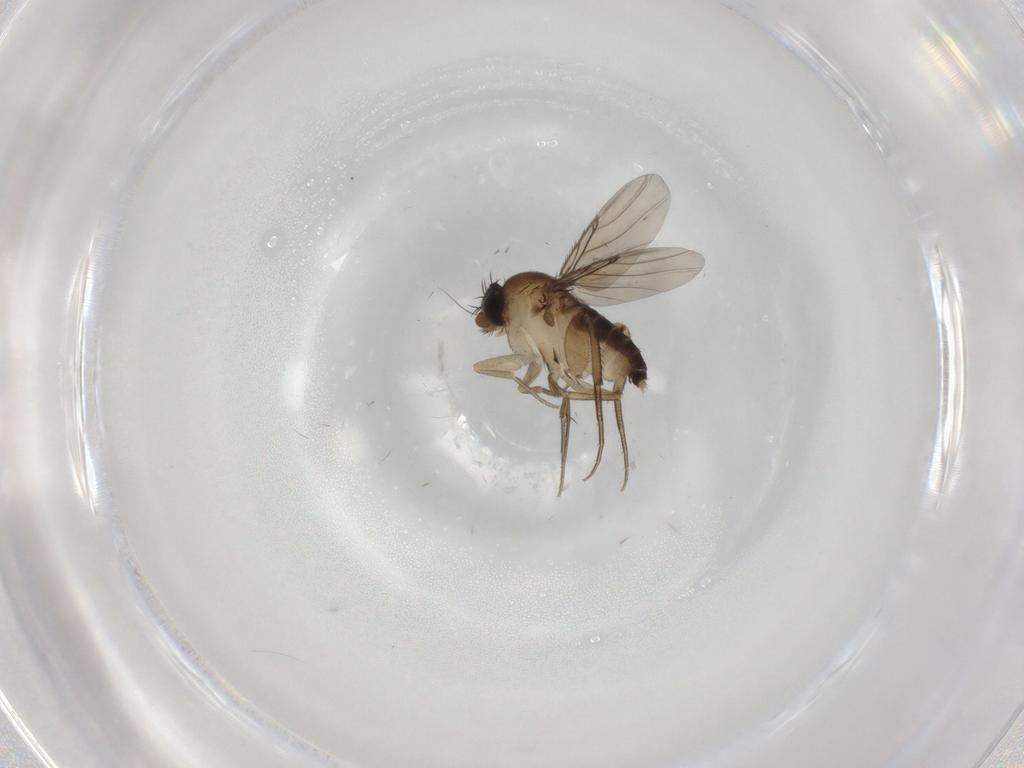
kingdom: Animalia
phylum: Arthropoda
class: Insecta
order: Diptera
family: Phoridae
